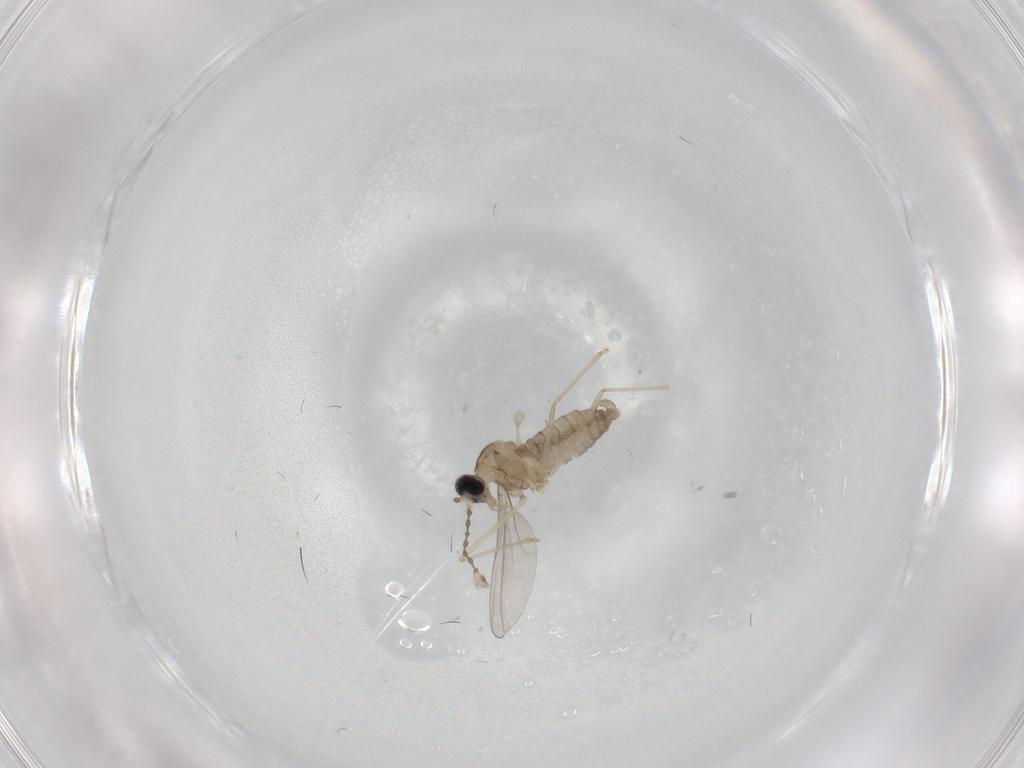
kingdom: Animalia
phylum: Arthropoda
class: Insecta
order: Diptera
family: Cecidomyiidae
